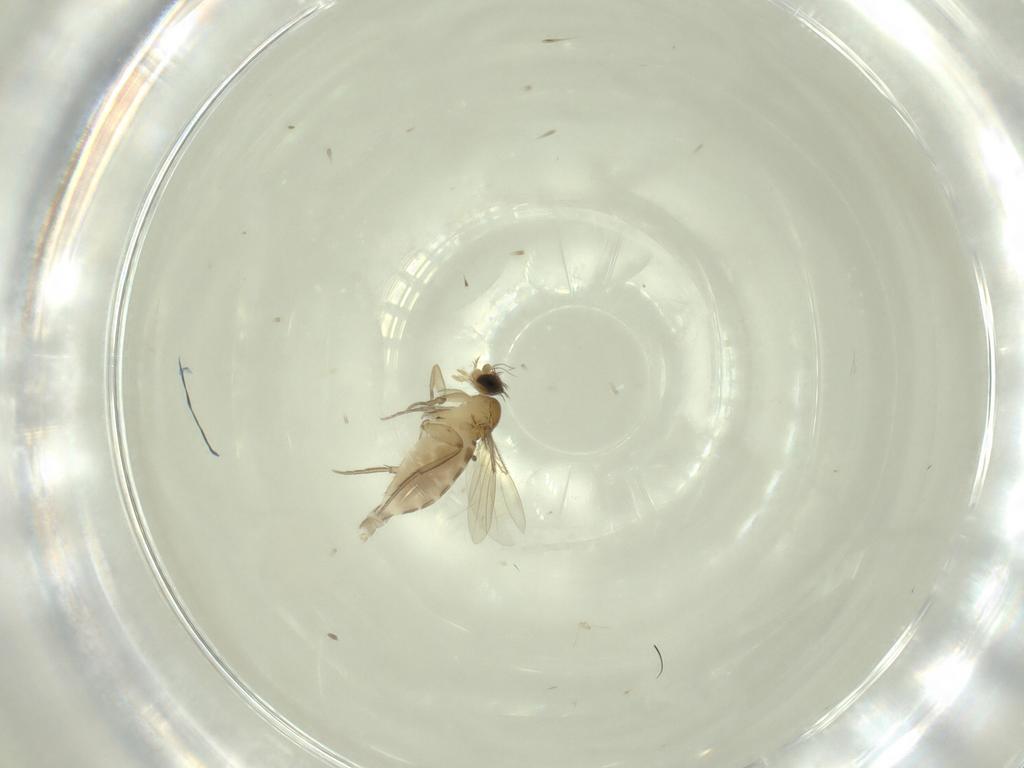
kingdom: Animalia
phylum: Arthropoda
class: Insecta
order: Diptera
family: Phoridae
